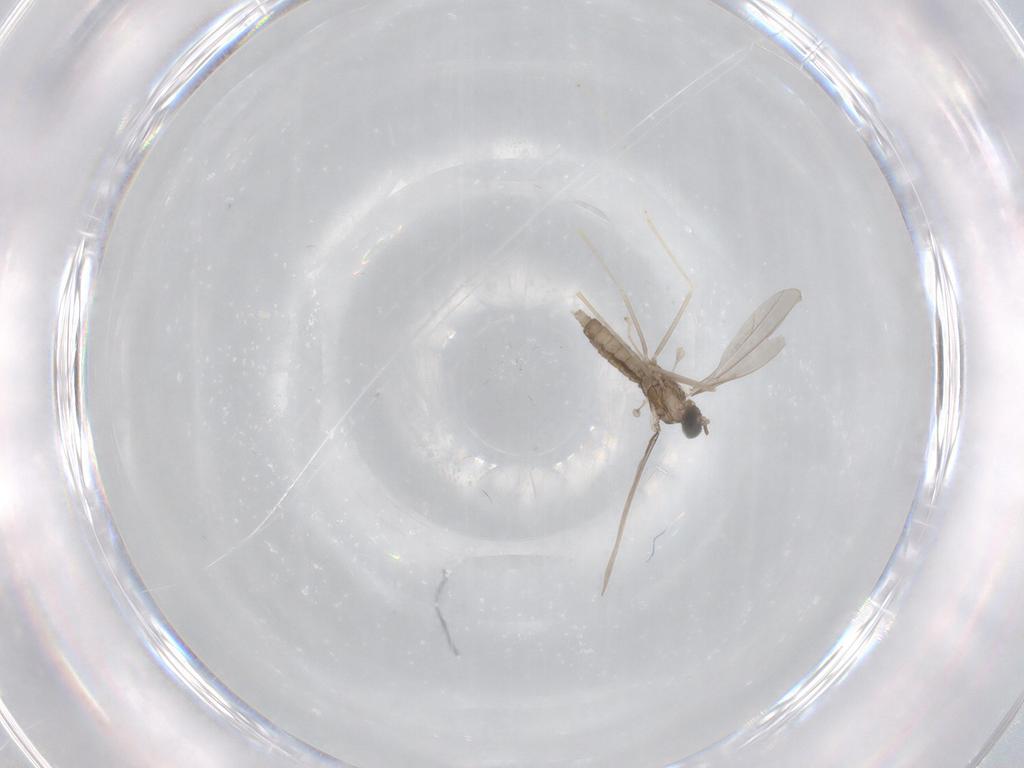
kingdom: Animalia
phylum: Arthropoda
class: Insecta
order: Diptera
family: Cecidomyiidae
